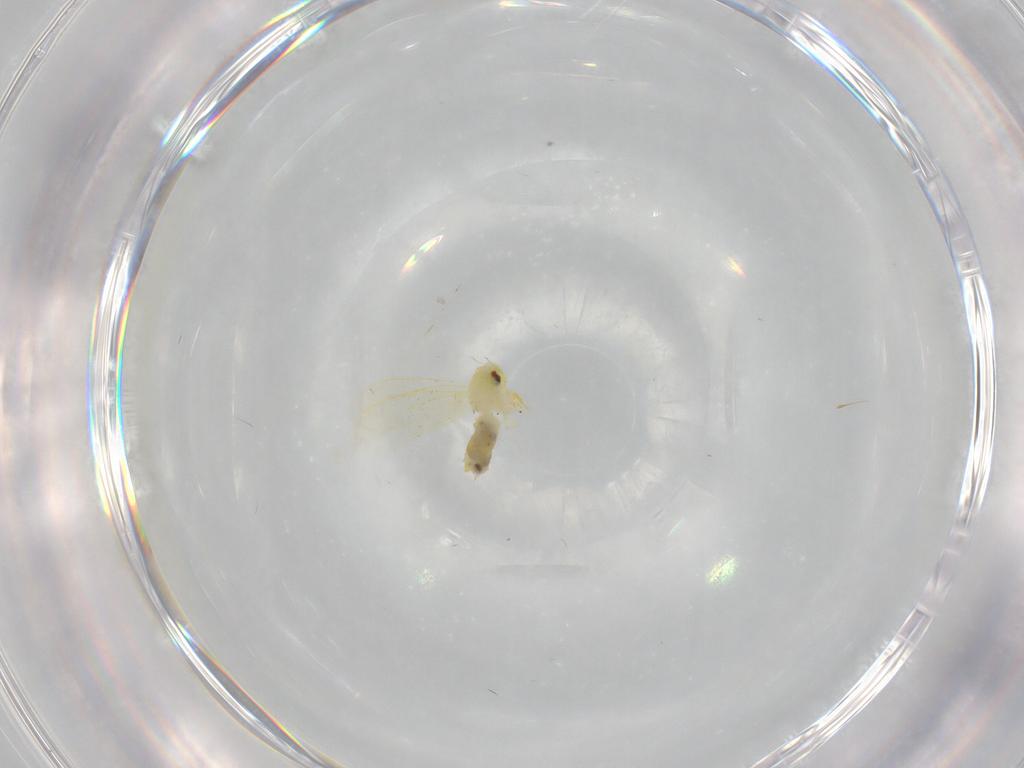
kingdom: Animalia
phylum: Arthropoda
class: Insecta
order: Hemiptera
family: Aleyrodidae
